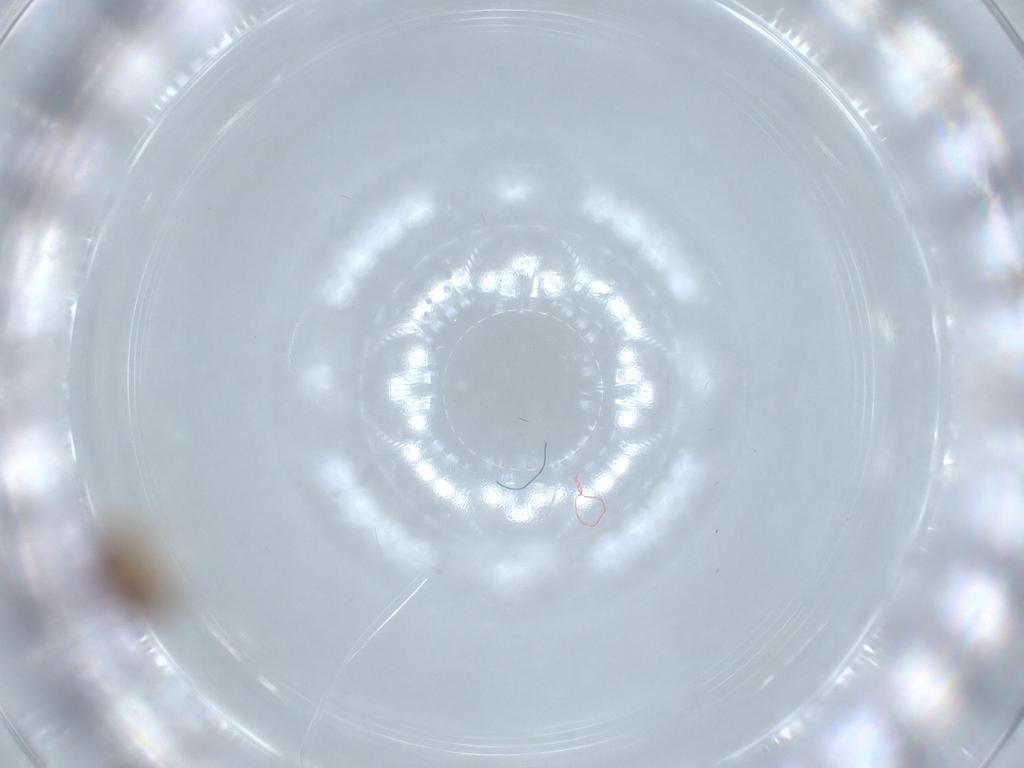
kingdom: Animalia
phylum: Arthropoda
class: Insecta
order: Hymenoptera
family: Scelionidae
